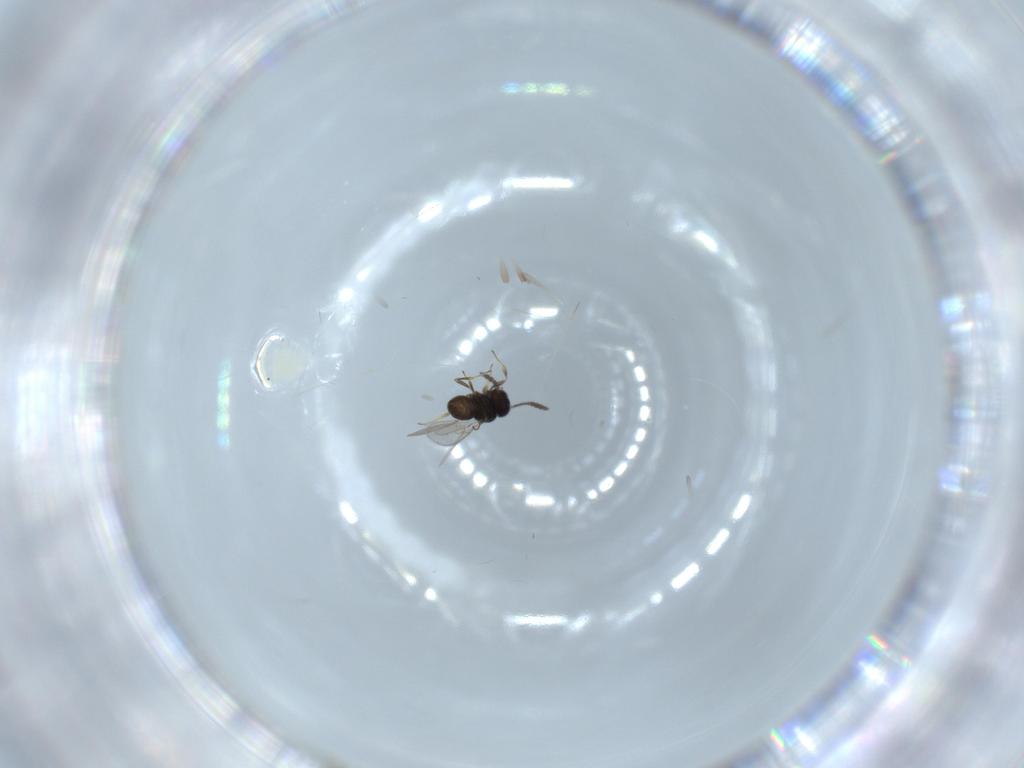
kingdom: Animalia
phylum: Arthropoda
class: Insecta
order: Hymenoptera
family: Scelionidae
